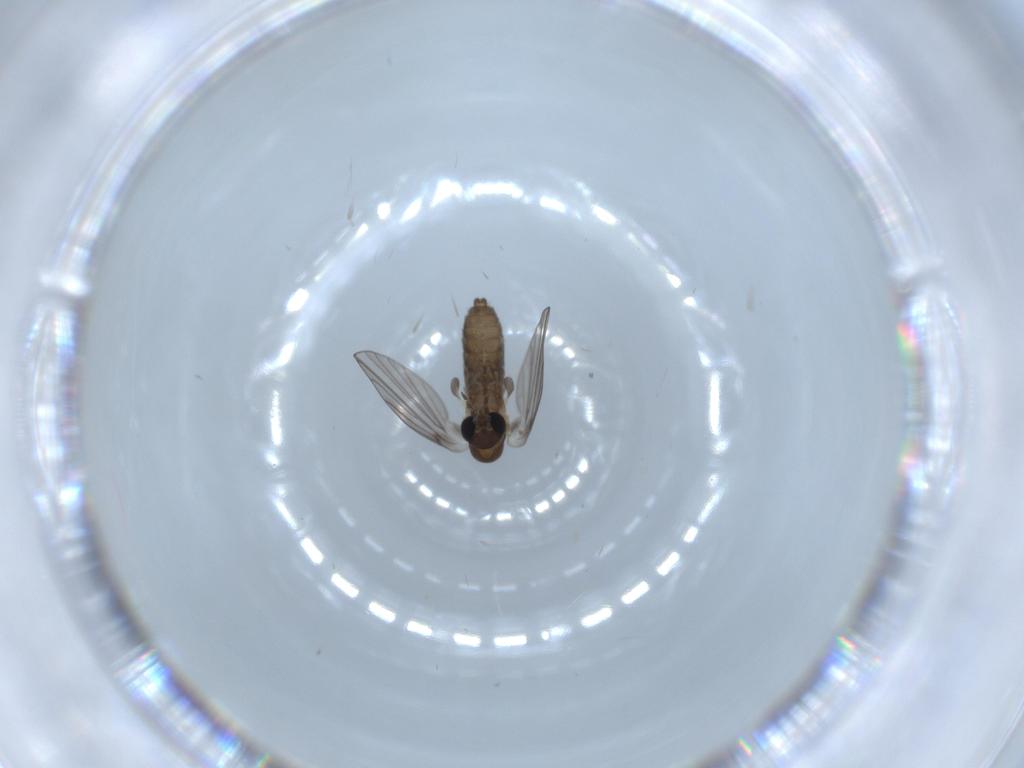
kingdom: Animalia
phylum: Arthropoda
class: Insecta
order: Diptera
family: Psychodidae
